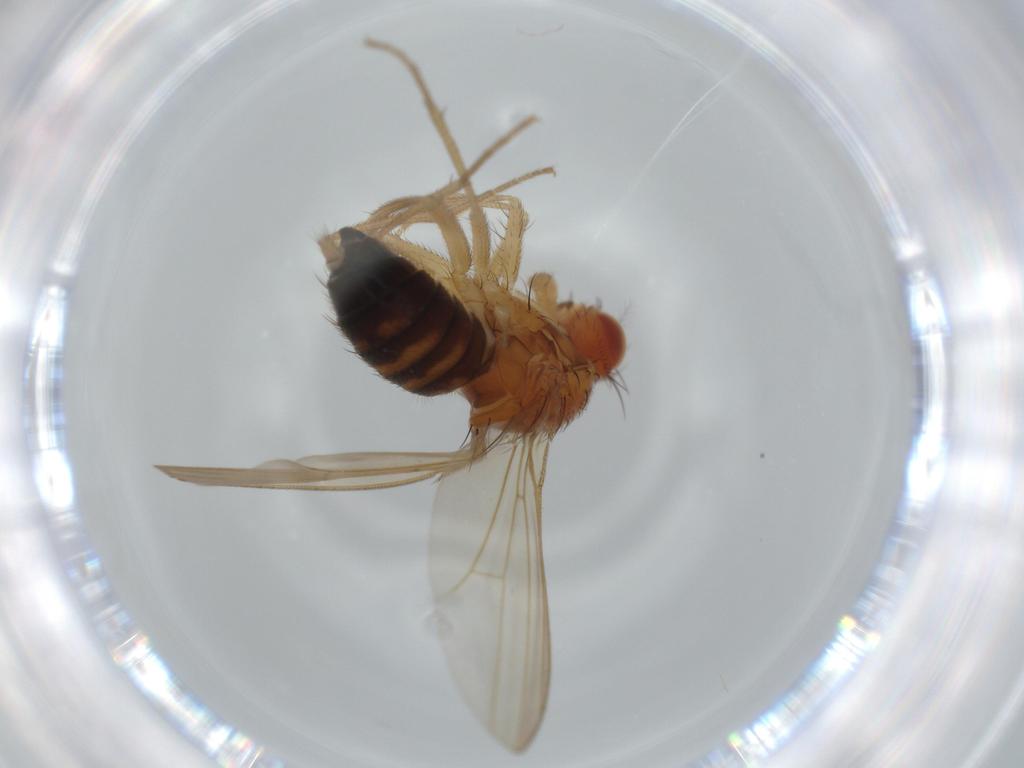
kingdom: Animalia
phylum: Arthropoda
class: Insecta
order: Diptera
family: Drosophilidae
